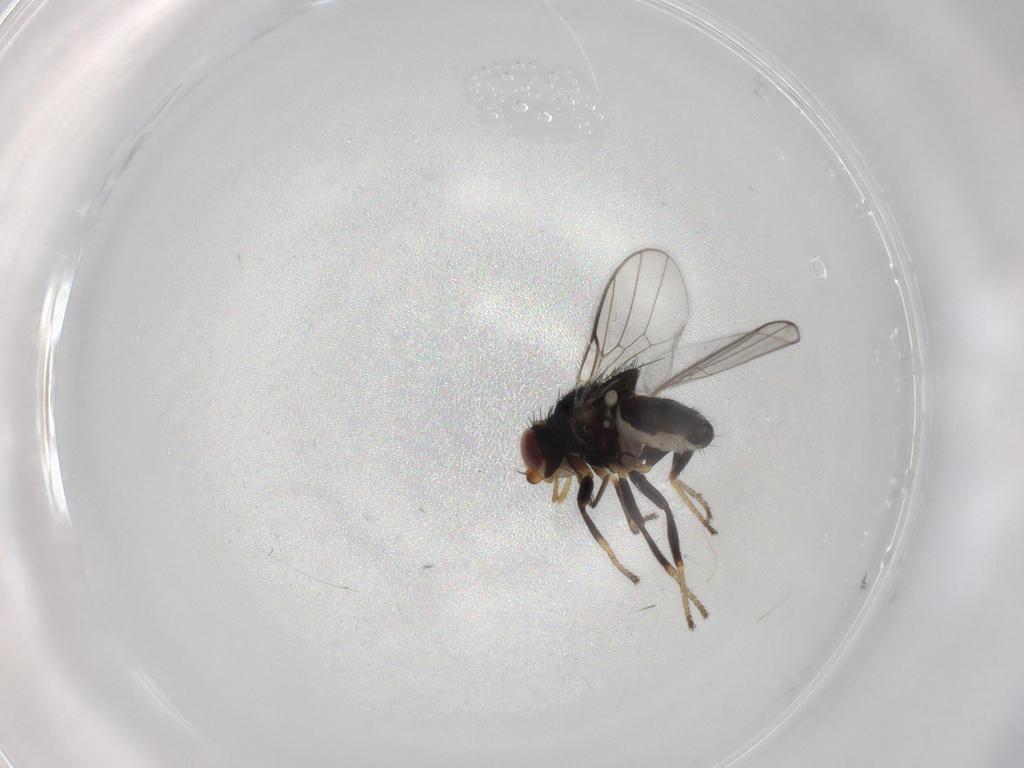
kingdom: Animalia
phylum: Arthropoda
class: Insecta
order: Diptera
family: Chloropidae
